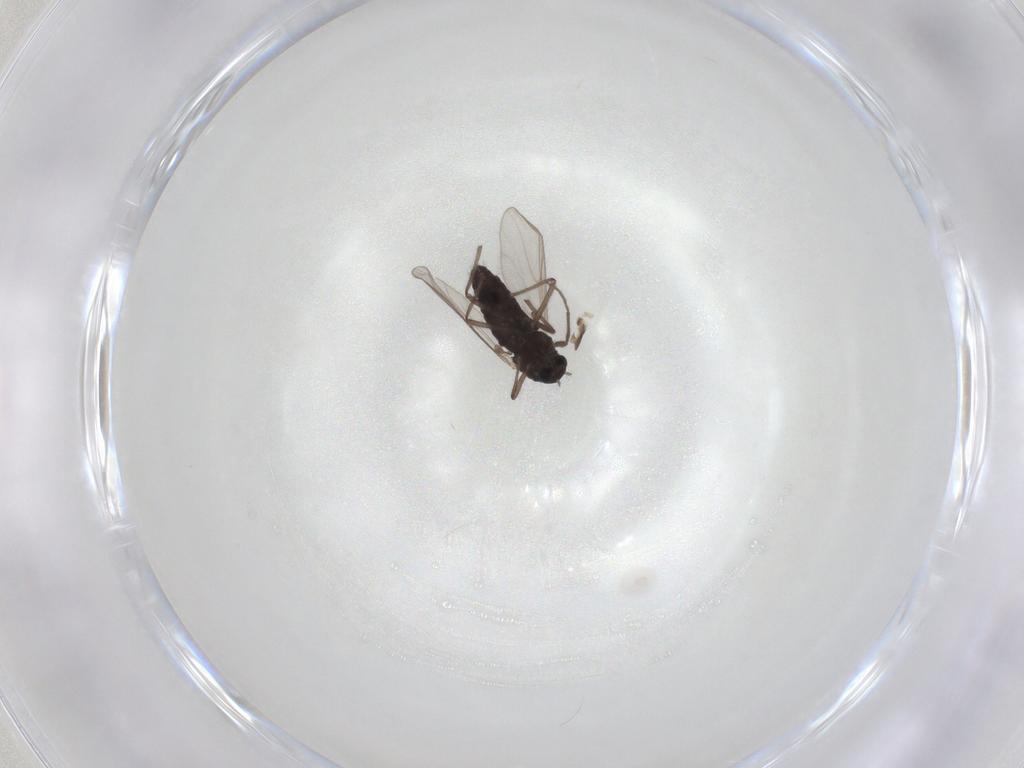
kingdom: Animalia
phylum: Arthropoda
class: Insecta
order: Diptera
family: Chironomidae
